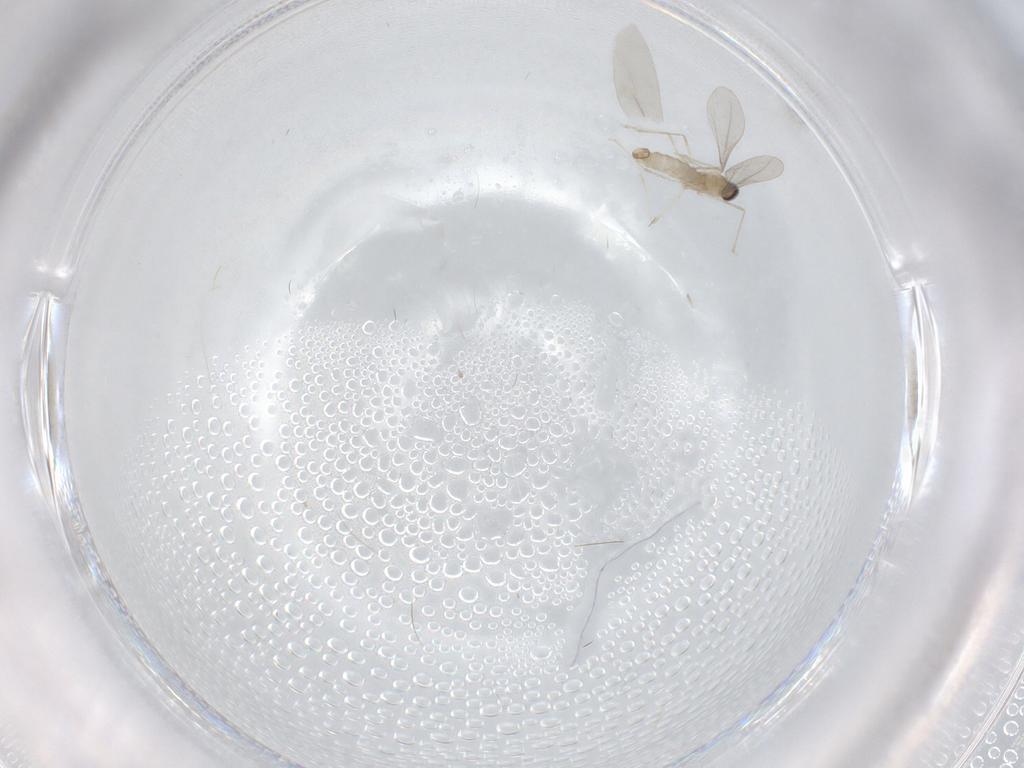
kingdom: Animalia
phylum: Arthropoda
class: Insecta
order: Diptera
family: Cecidomyiidae
